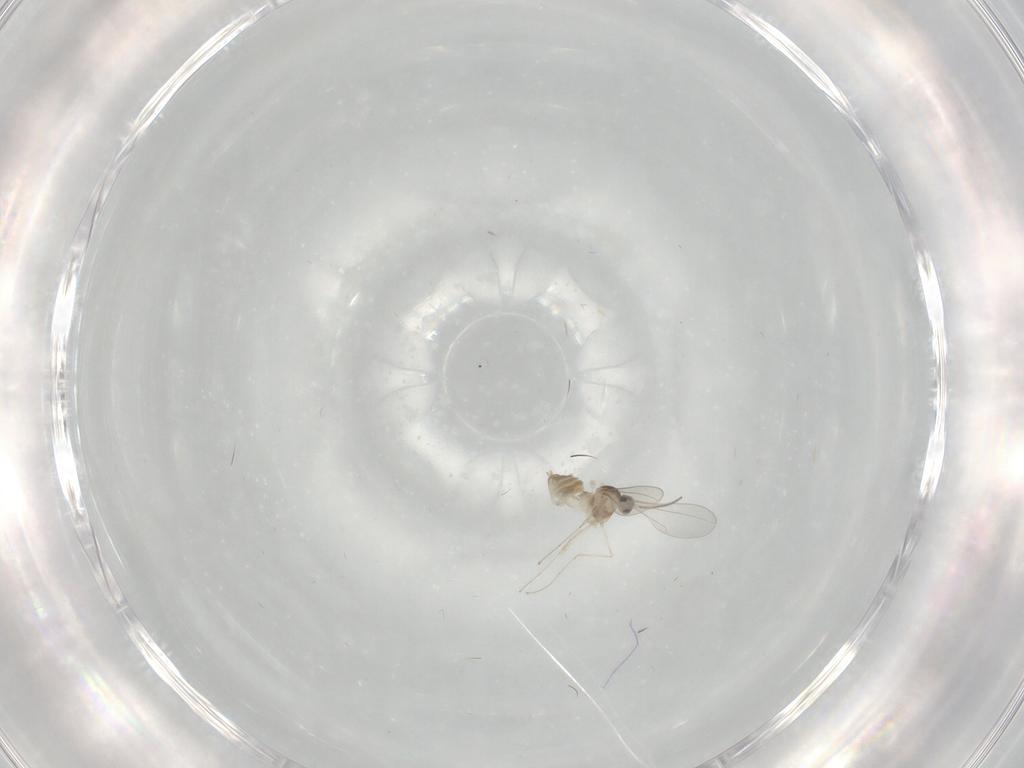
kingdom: Animalia
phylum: Arthropoda
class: Insecta
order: Diptera
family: Cecidomyiidae
